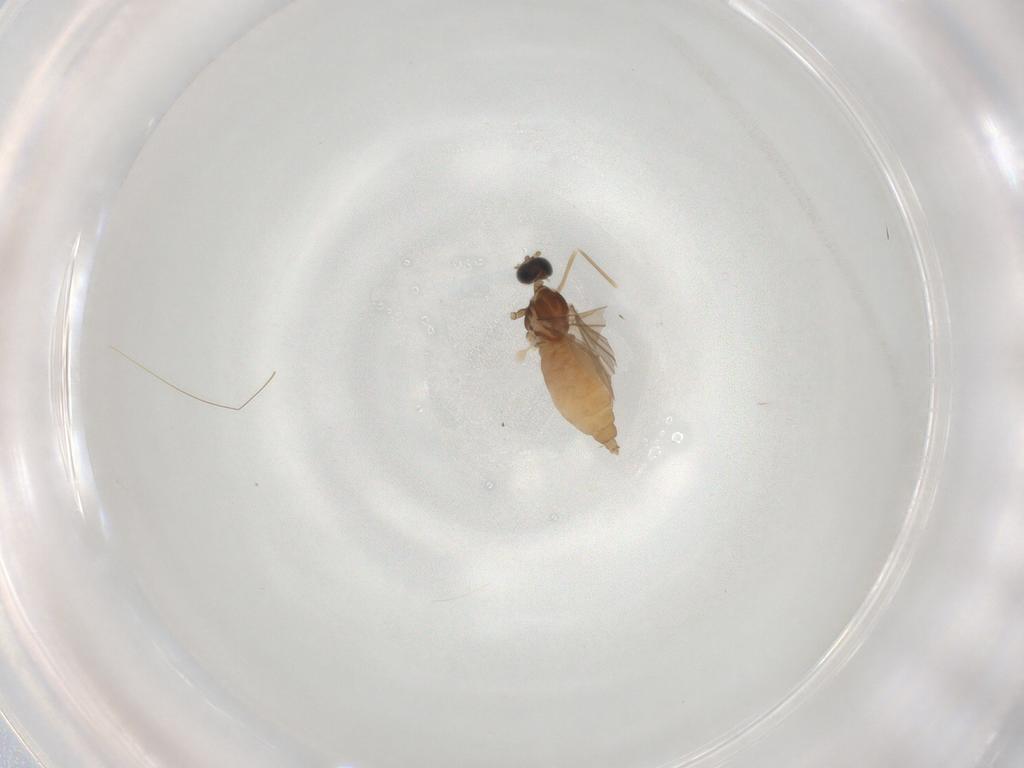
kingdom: Animalia
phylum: Arthropoda
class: Insecta
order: Diptera
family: Cecidomyiidae
